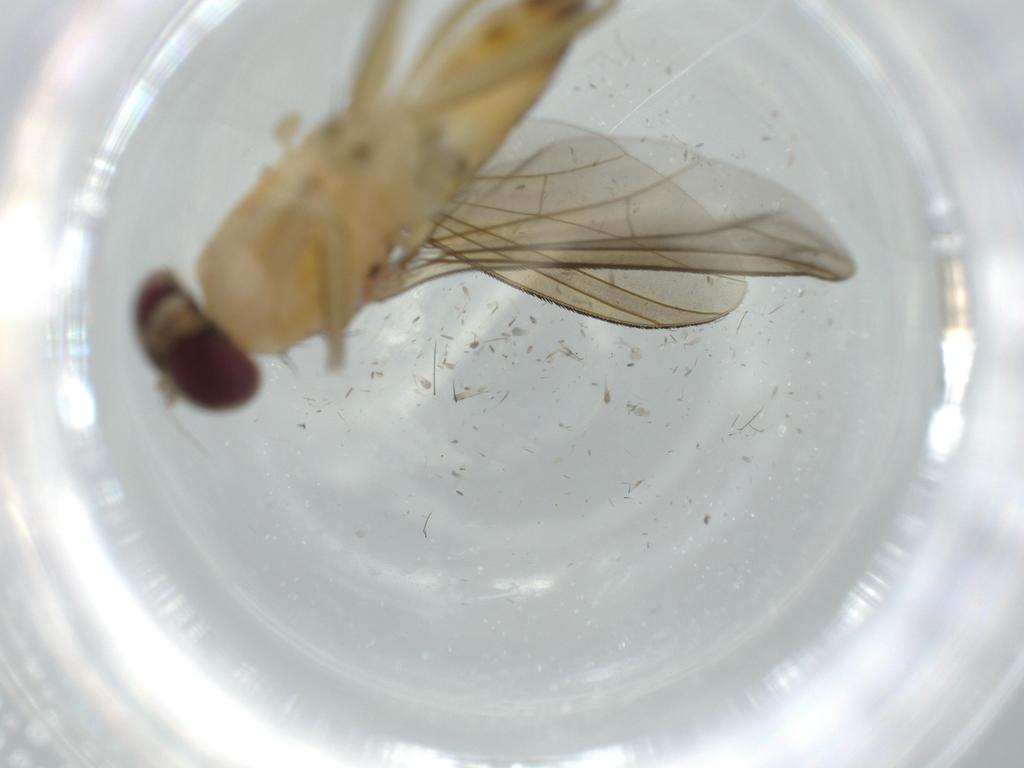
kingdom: Animalia
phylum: Arthropoda
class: Insecta
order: Diptera
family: Dolichopodidae
